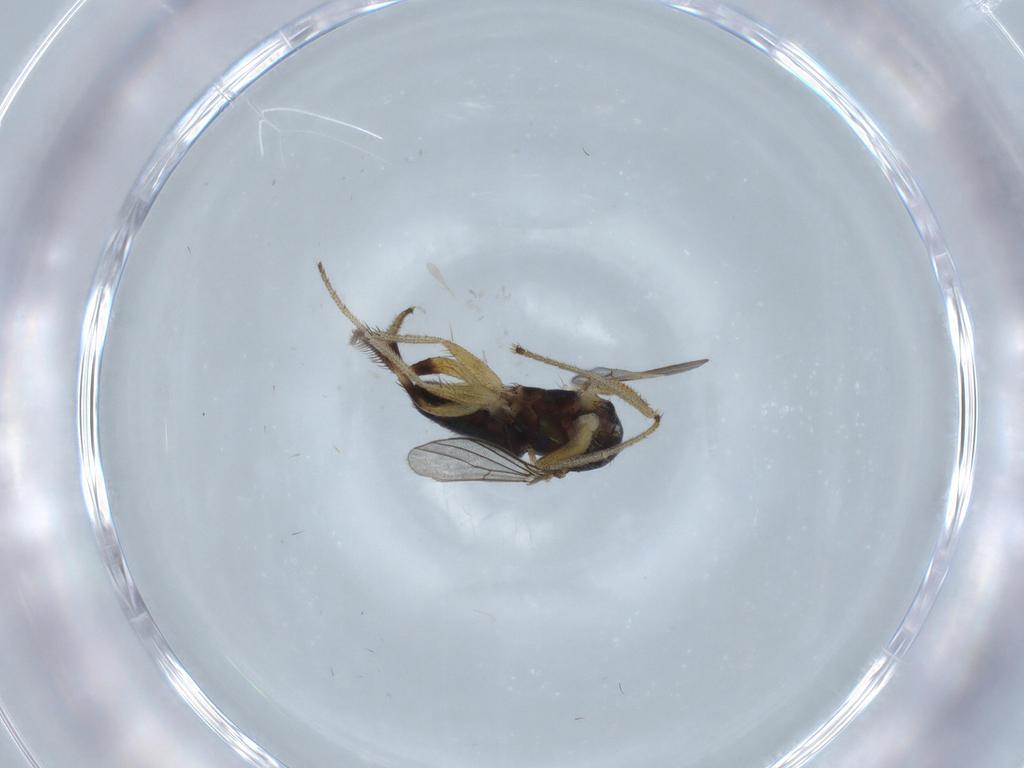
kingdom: Animalia
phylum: Arthropoda
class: Insecta
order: Diptera
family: Dolichopodidae
